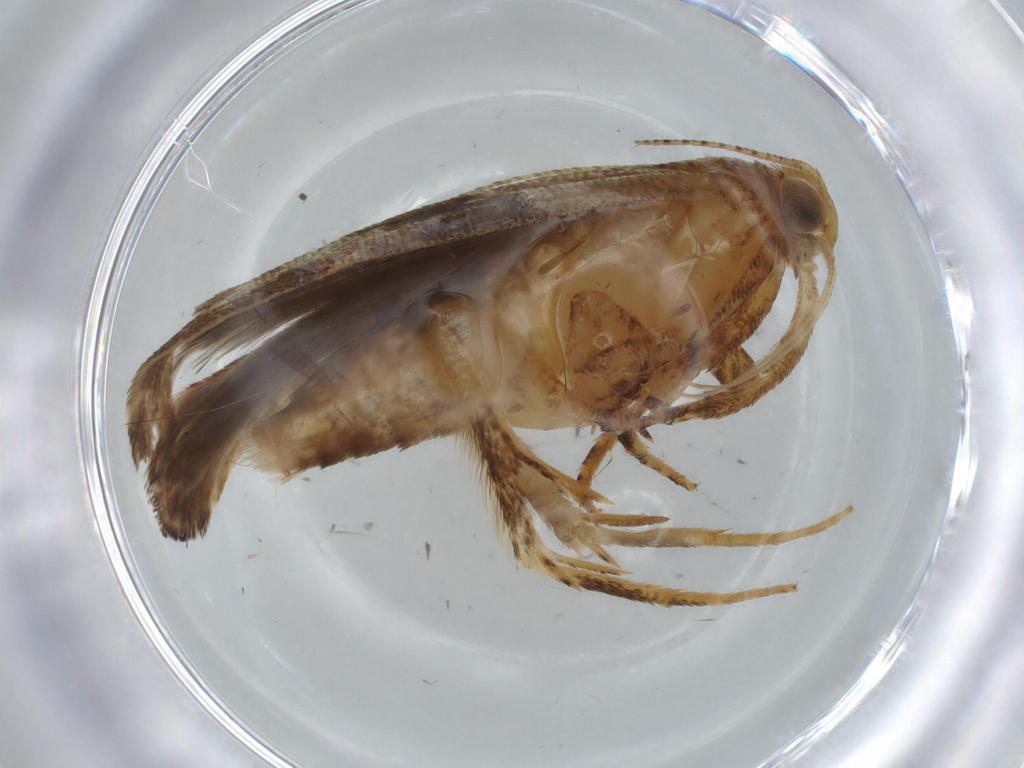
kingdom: Animalia
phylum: Arthropoda
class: Insecta
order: Lepidoptera
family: Gracillariidae
